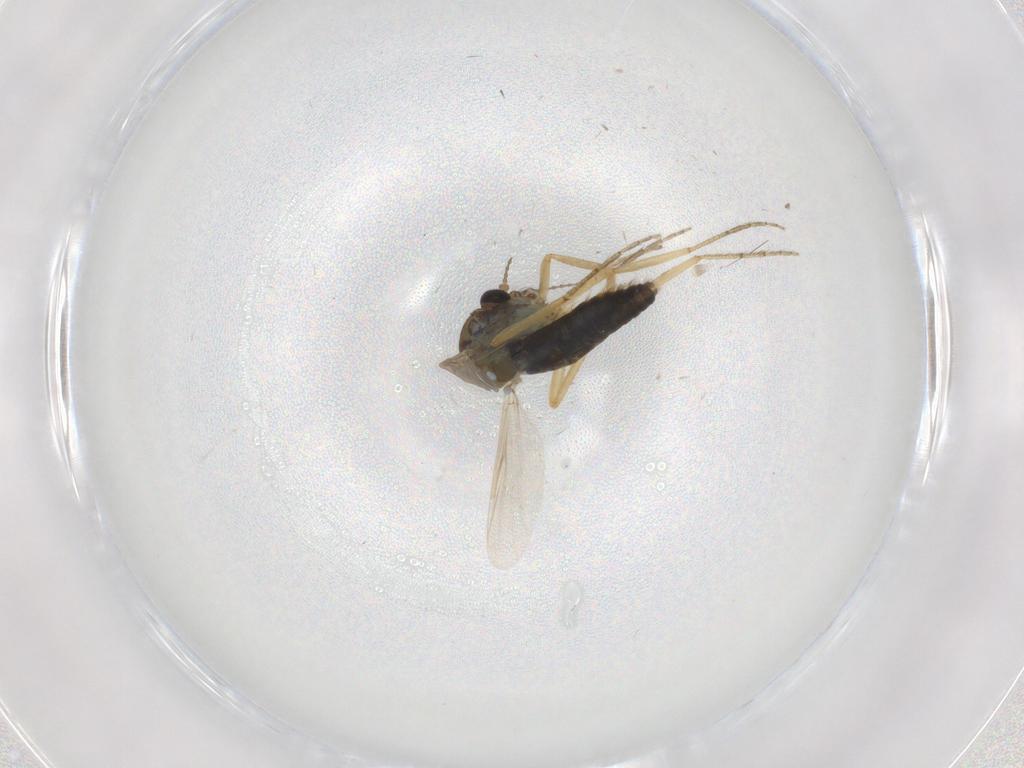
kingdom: Animalia
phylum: Arthropoda
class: Insecta
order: Diptera
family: Ceratopogonidae
